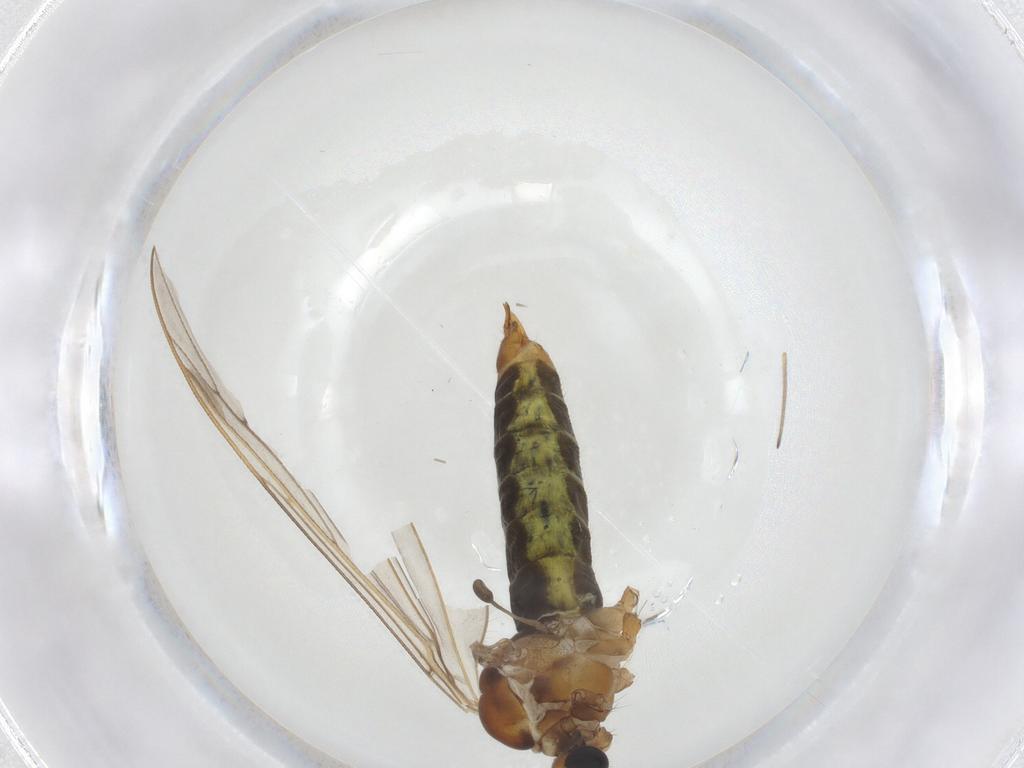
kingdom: Animalia
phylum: Arthropoda
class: Insecta
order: Diptera
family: Limoniidae
